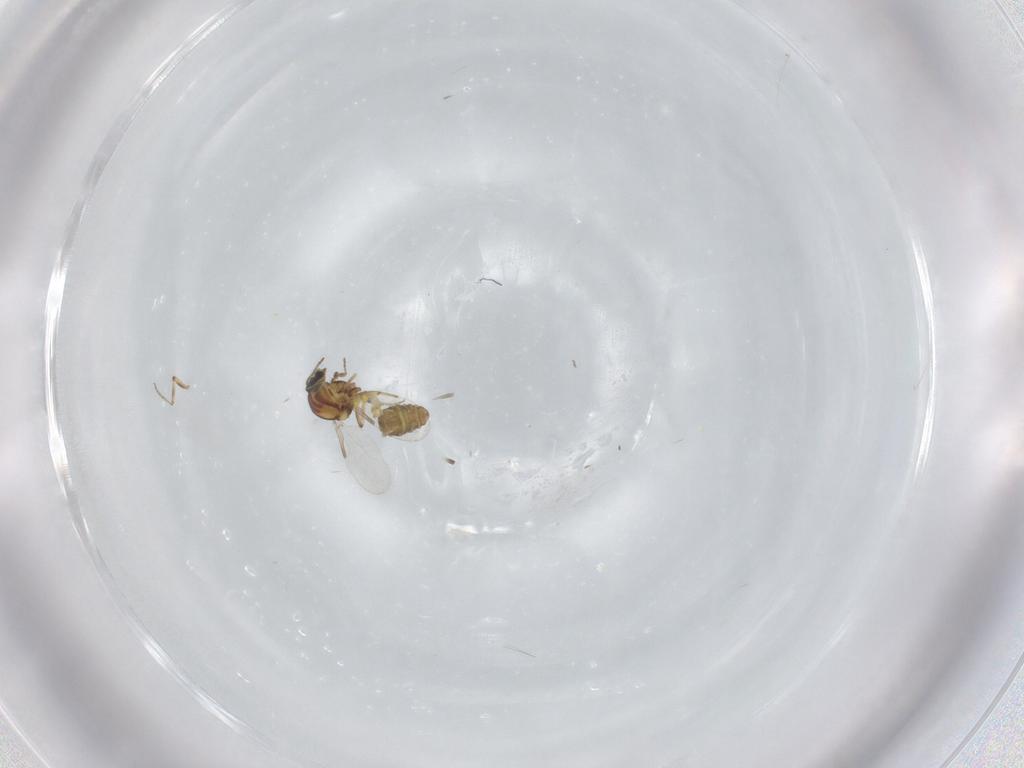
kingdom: Animalia
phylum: Arthropoda
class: Insecta
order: Diptera
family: Ceratopogonidae
